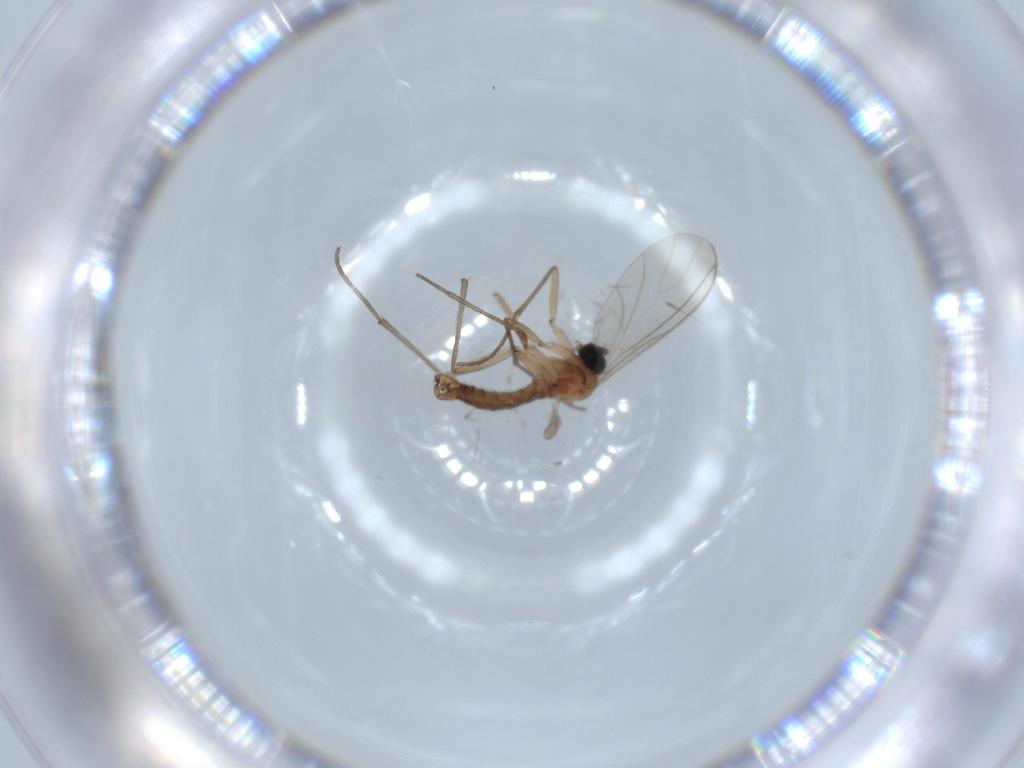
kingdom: Animalia
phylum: Arthropoda
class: Insecta
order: Diptera
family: Sciaridae
